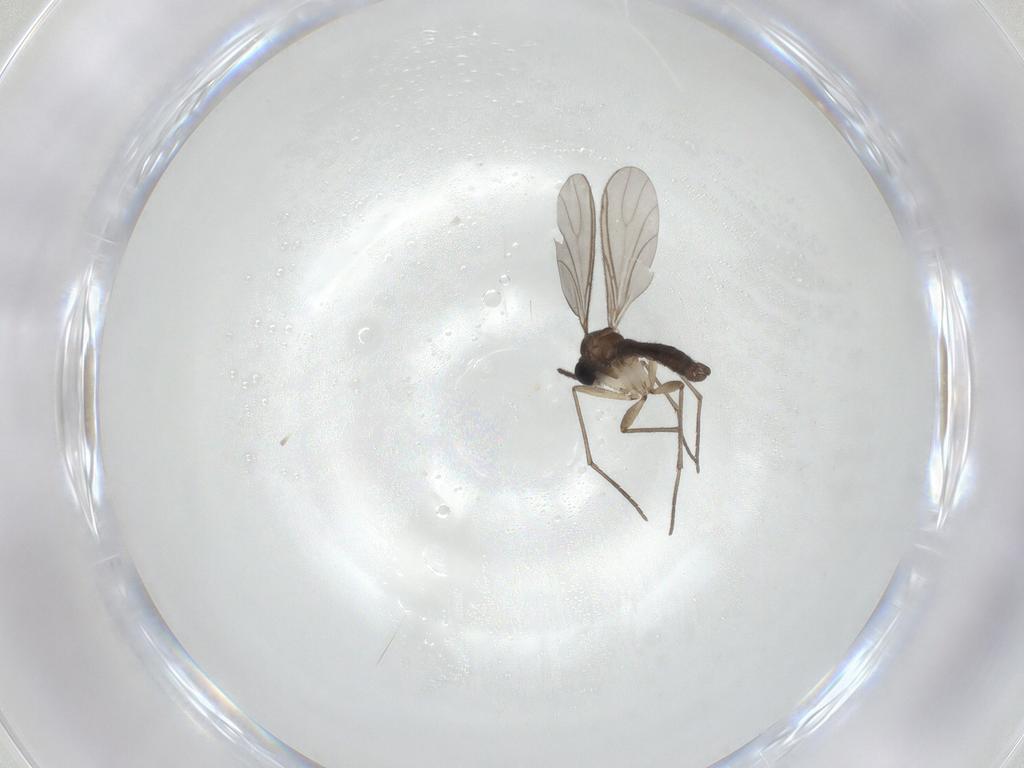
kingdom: Animalia
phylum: Arthropoda
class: Insecta
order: Diptera
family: Sciaridae
